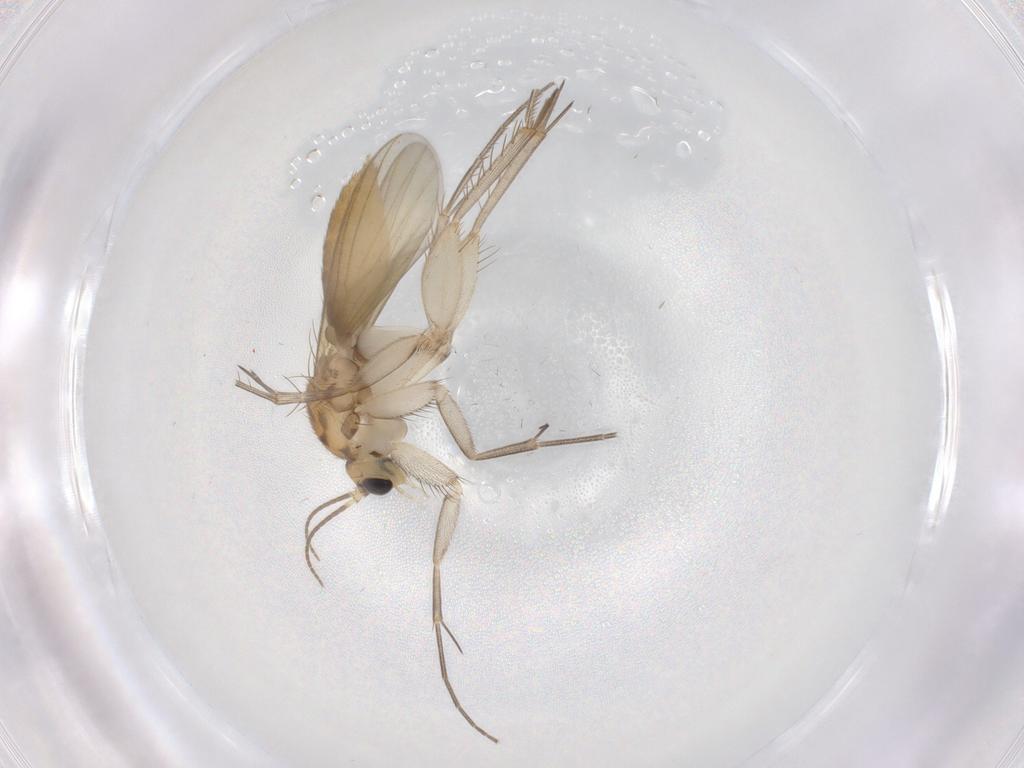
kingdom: Animalia
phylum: Arthropoda
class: Insecta
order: Diptera
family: Mycetophilidae
